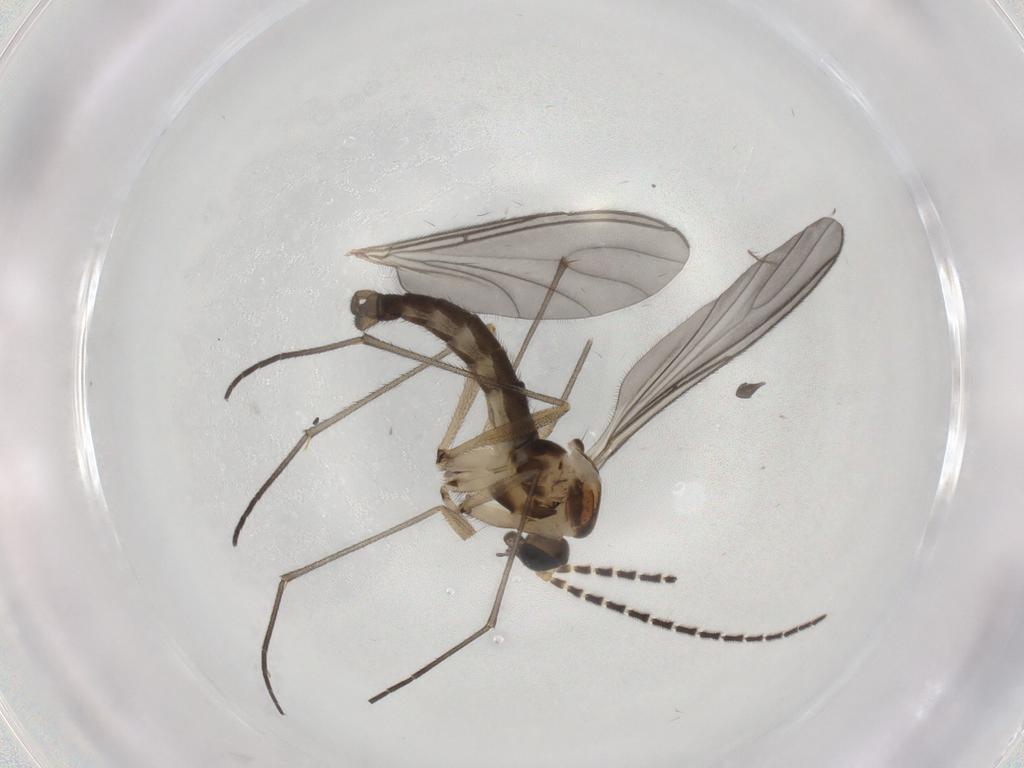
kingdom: Animalia
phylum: Arthropoda
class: Insecta
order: Diptera
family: Sciaridae
